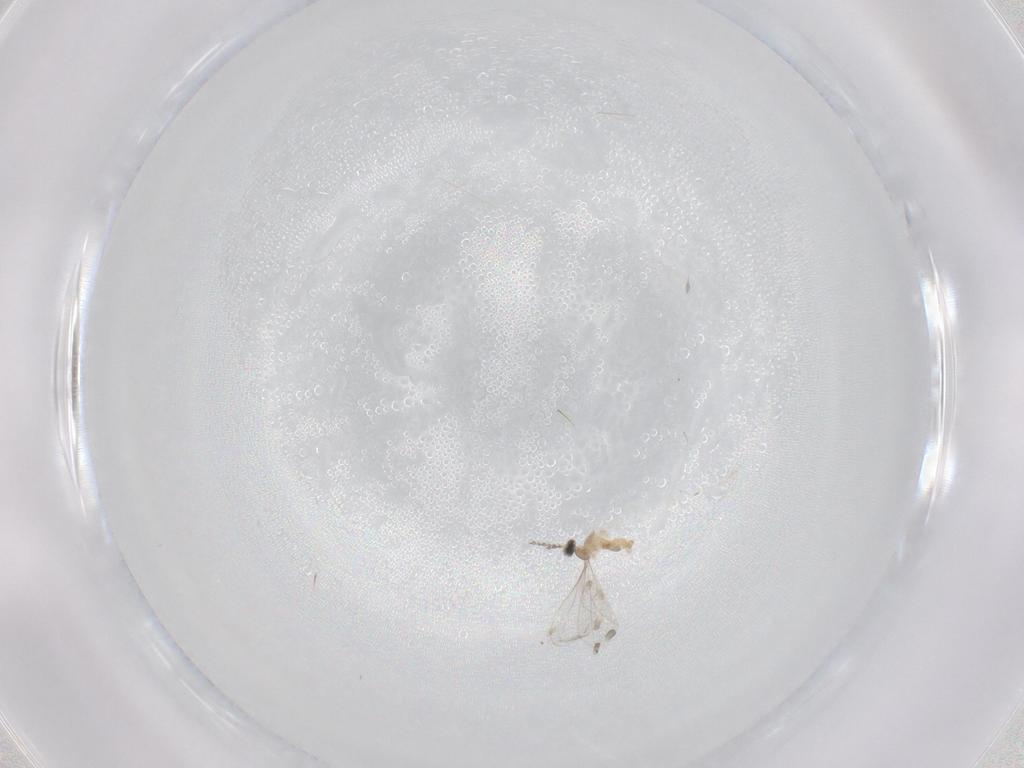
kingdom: Animalia
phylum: Arthropoda
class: Insecta
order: Diptera
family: Cecidomyiidae
